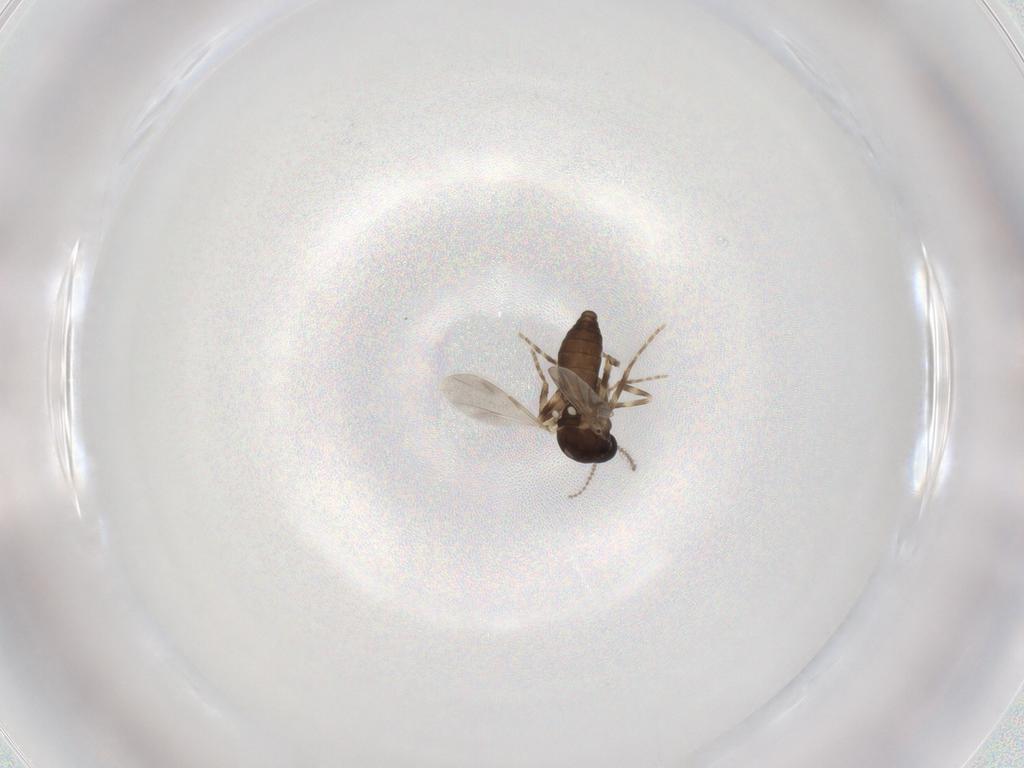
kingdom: Animalia
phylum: Arthropoda
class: Insecta
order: Diptera
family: Ceratopogonidae
